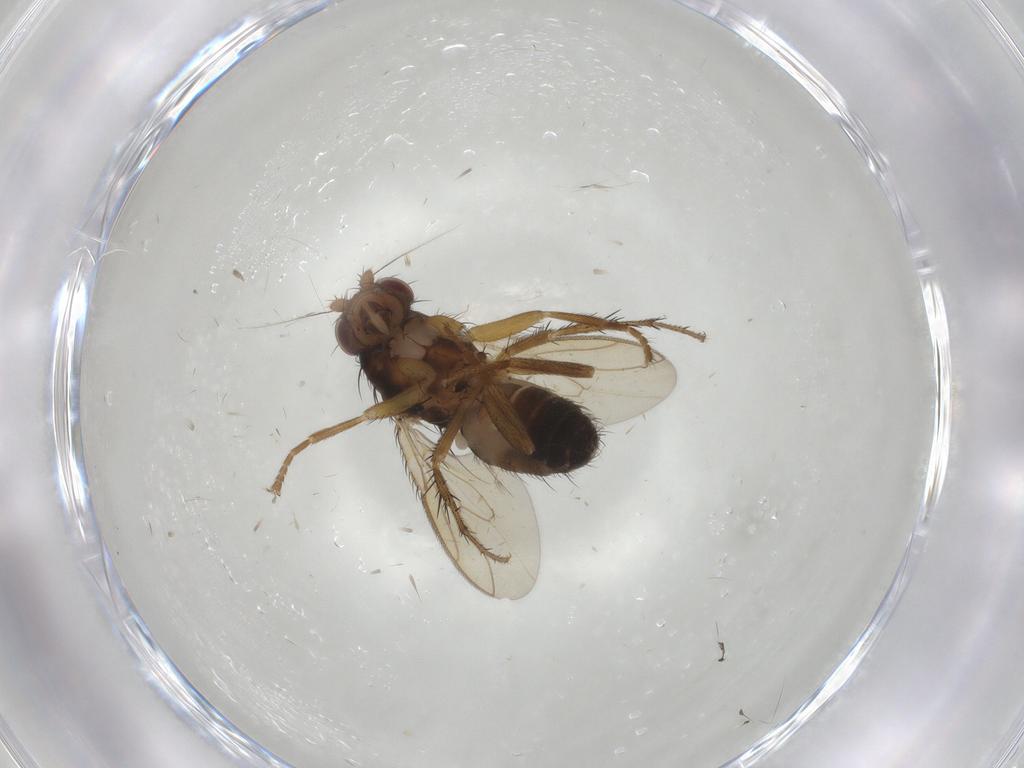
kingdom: Animalia
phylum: Arthropoda
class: Insecta
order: Diptera
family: Sphaeroceridae
